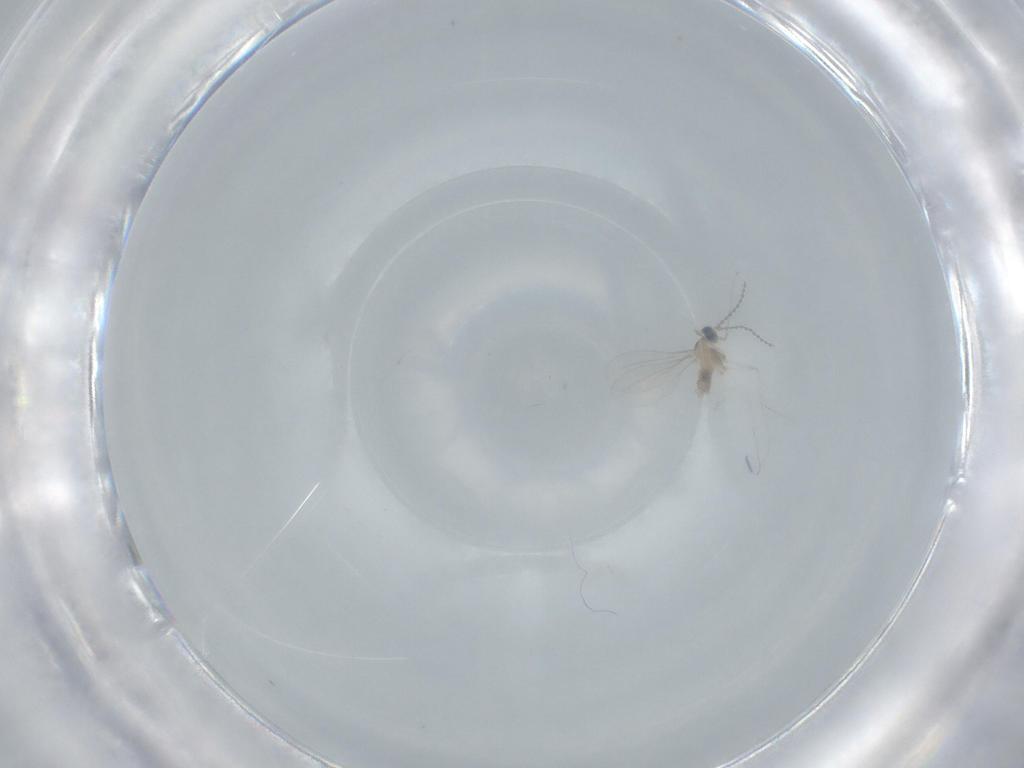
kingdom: Animalia
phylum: Arthropoda
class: Insecta
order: Diptera
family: Cecidomyiidae
